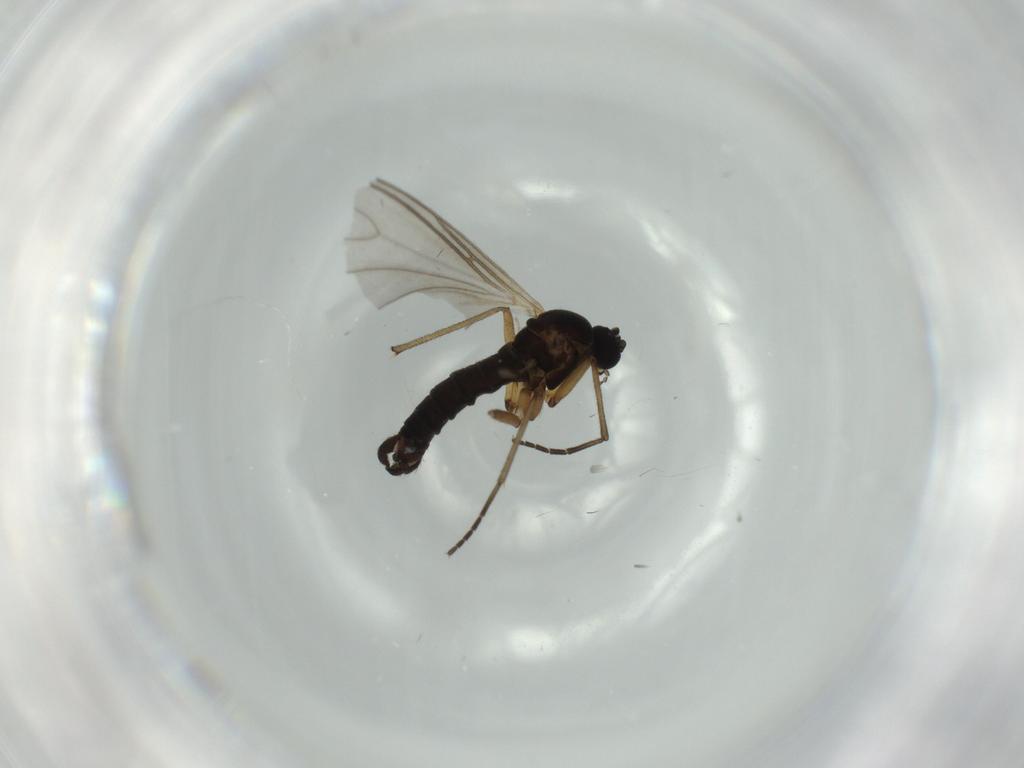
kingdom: Animalia
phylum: Arthropoda
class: Insecta
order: Diptera
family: Sciaridae
